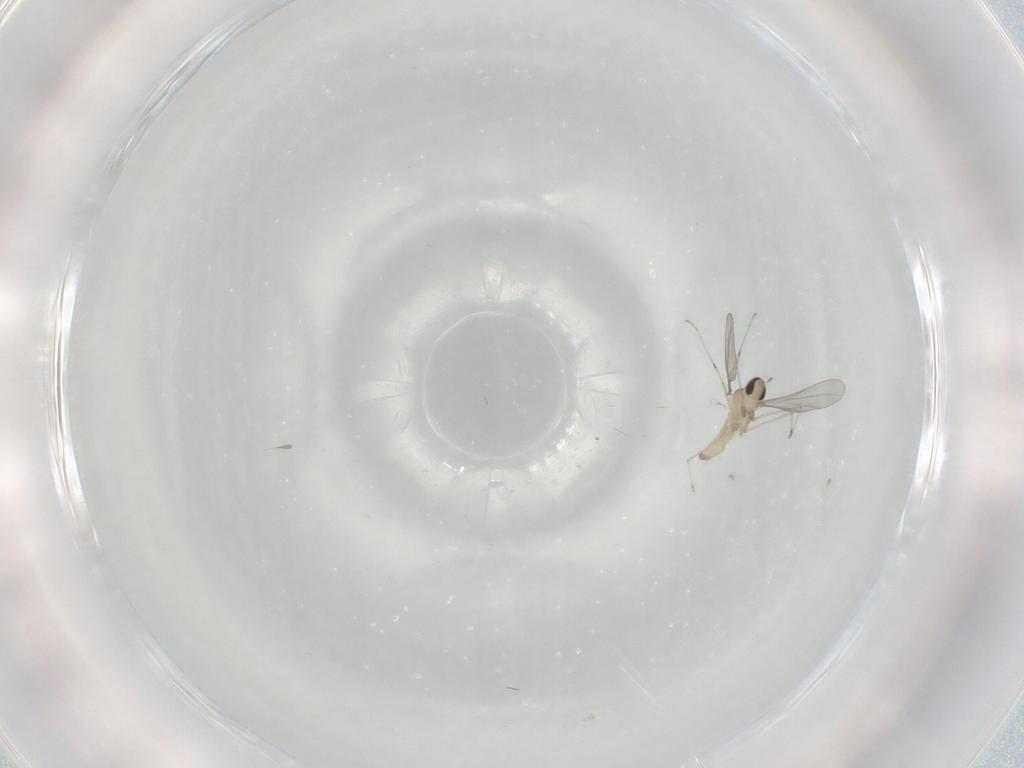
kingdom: Animalia
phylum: Arthropoda
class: Insecta
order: Diptera
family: Cecidomyiidae
